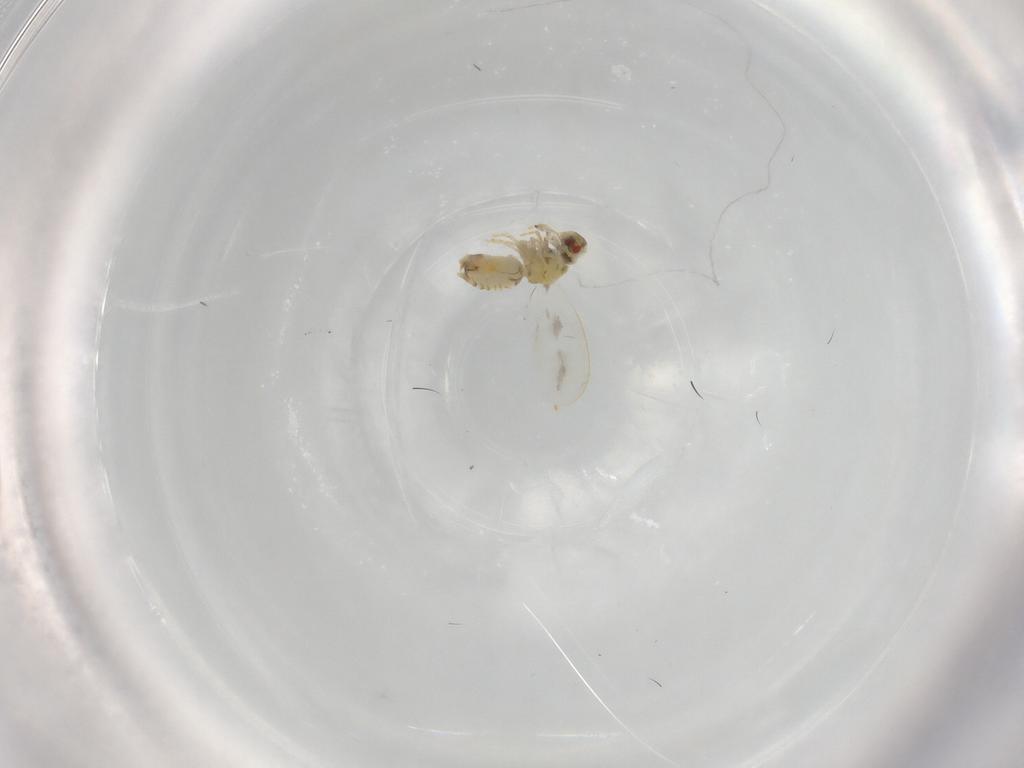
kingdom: Animalia
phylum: Arthropoda
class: Insecta
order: Hemiptera
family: Aleyrodidae
